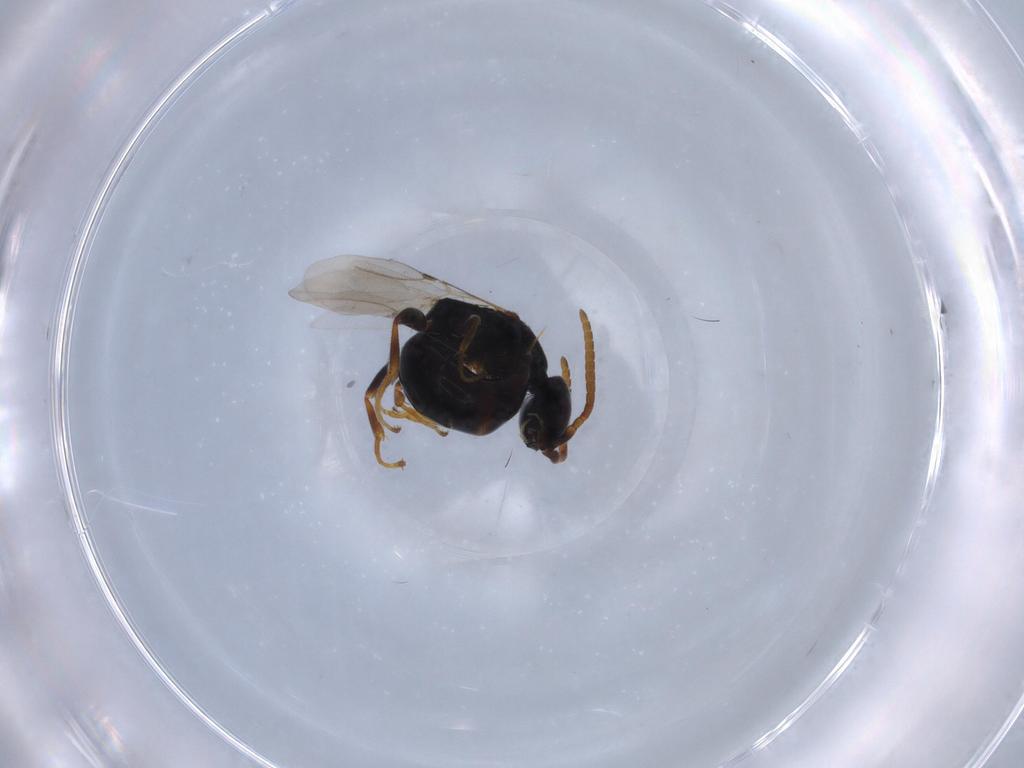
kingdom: Animalia
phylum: Arthropoda
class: Insecta
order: Hymenoptera
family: Bethylidae
